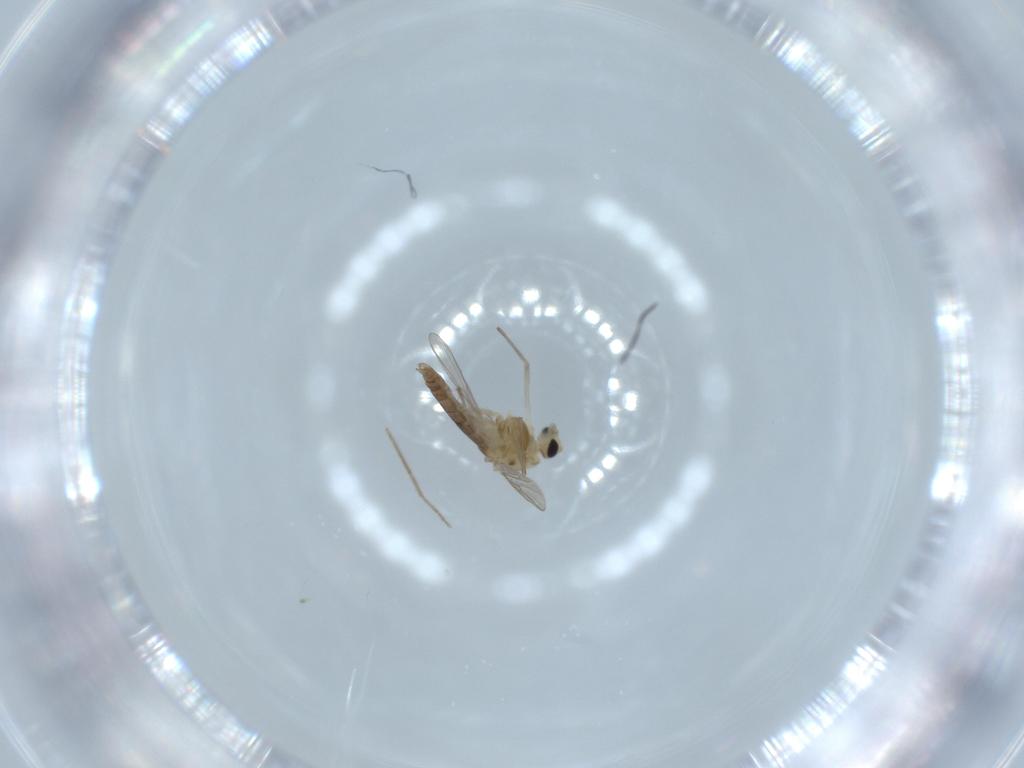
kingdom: Animalia
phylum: Arthropoda
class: Insecta
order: Diptera
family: Chironomidae
